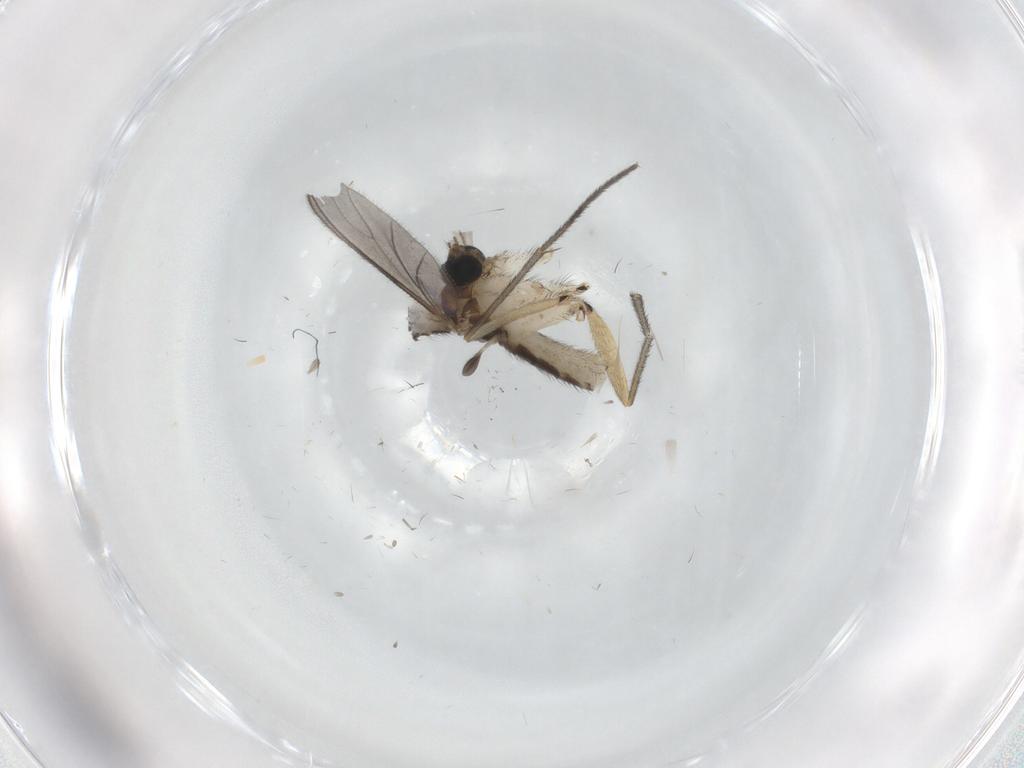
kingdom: Animalia
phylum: Arthropoda
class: Insecta
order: Diptera
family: Sciaridae
